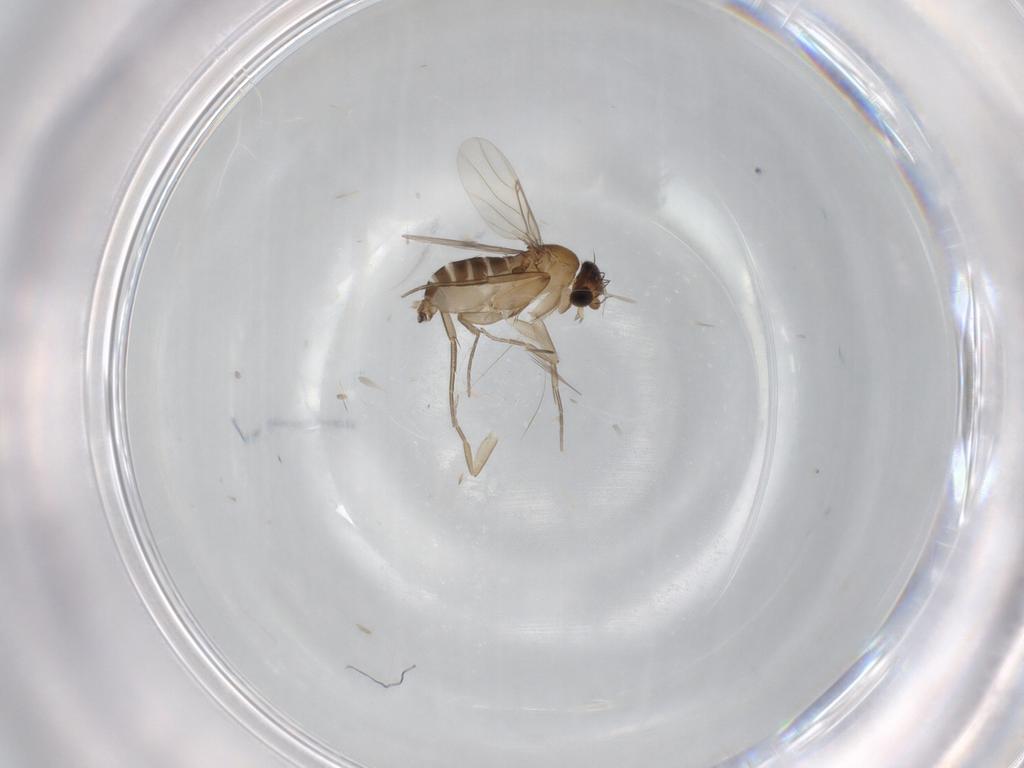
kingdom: Animalia
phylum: Arthropoda
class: Insecta
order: Diptera
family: Phoridae
